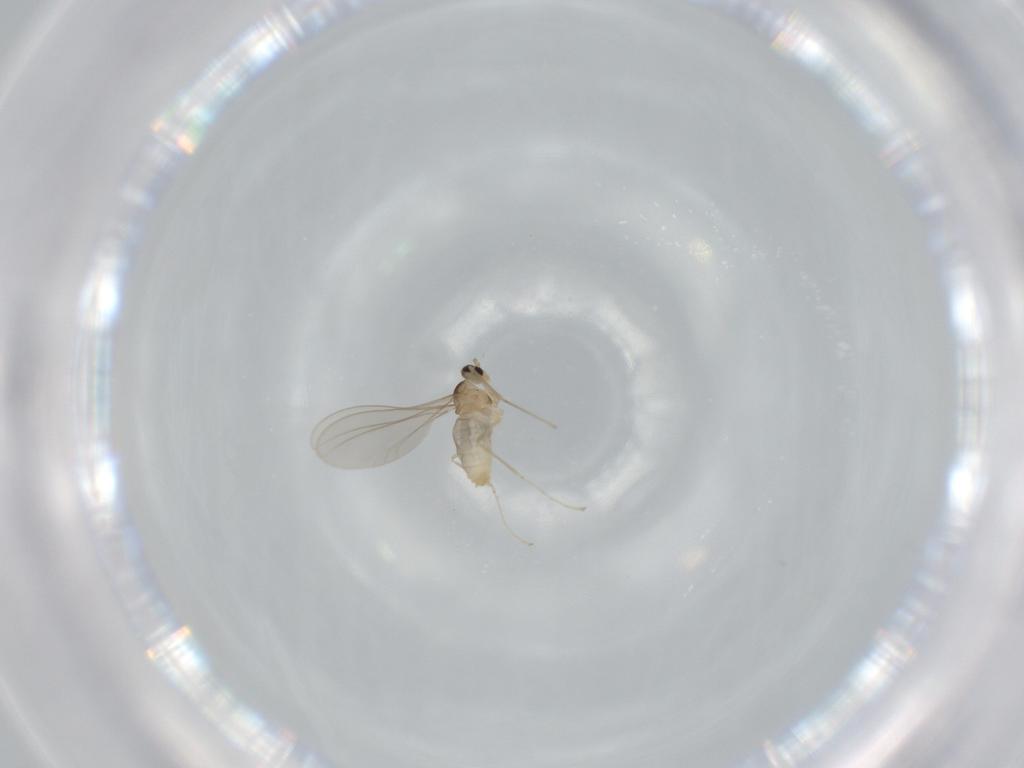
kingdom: Animalia
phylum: Arthropoda
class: Insecta
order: Diptera
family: Cecidomyiidae
